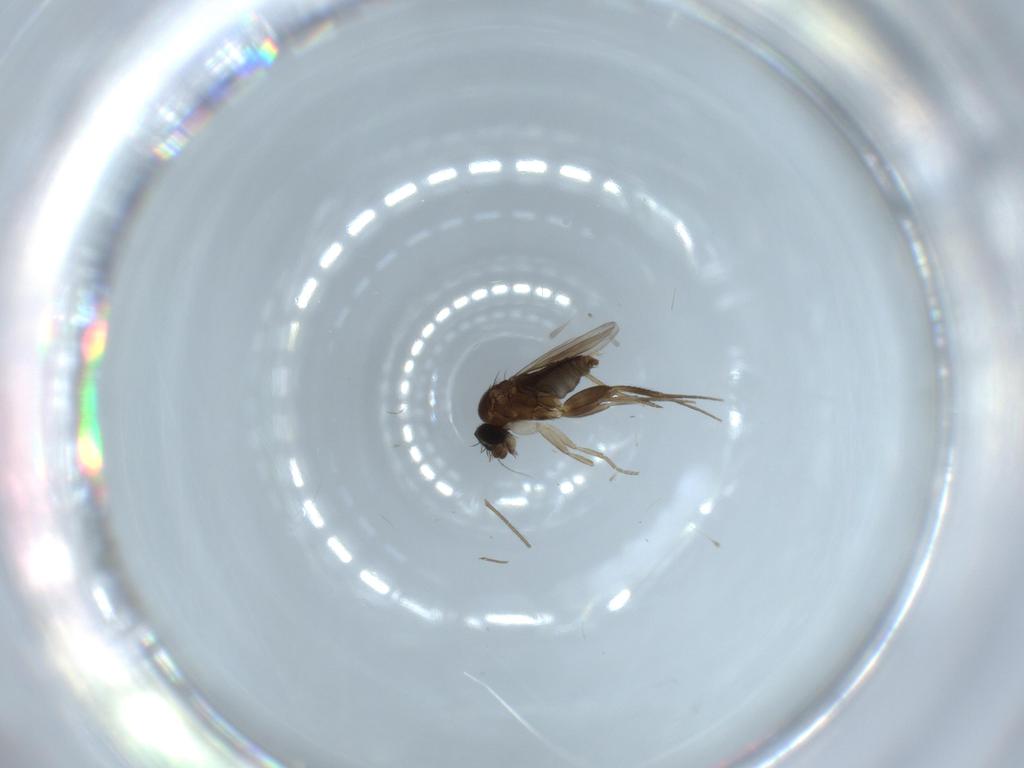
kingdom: Animalia
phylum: Arthropoda
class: Insecta
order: Diptera
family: Phoridae
